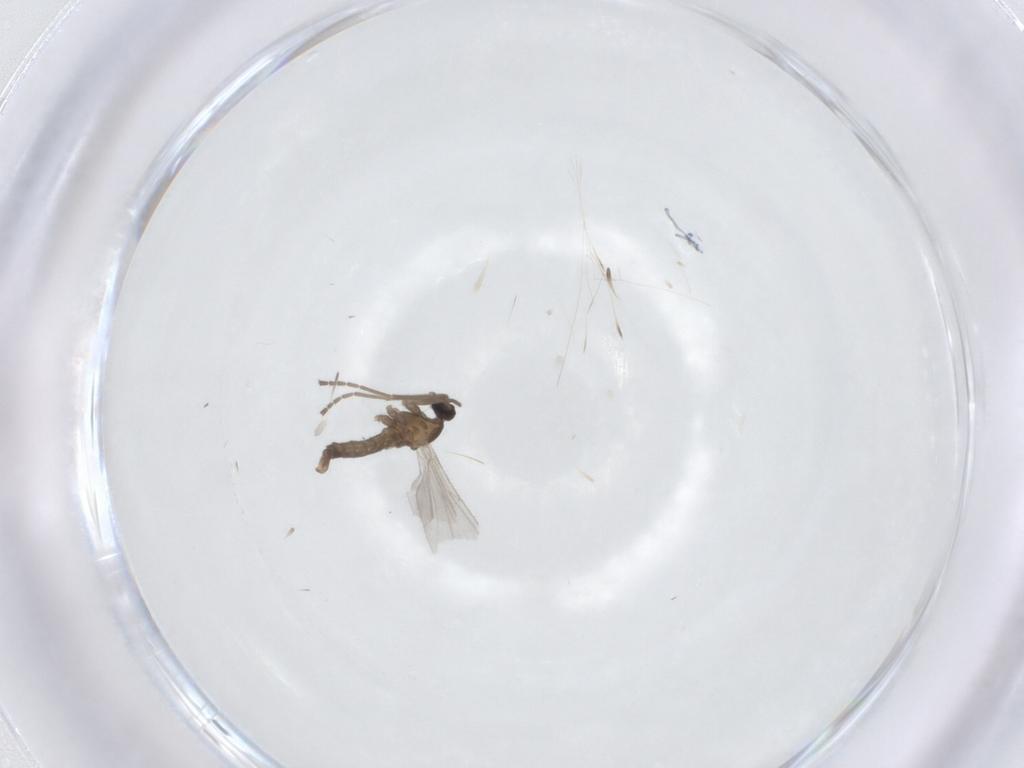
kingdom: Animalia
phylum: Arthropoda
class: Insecta
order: Diptera
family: Cecidomyiidae
